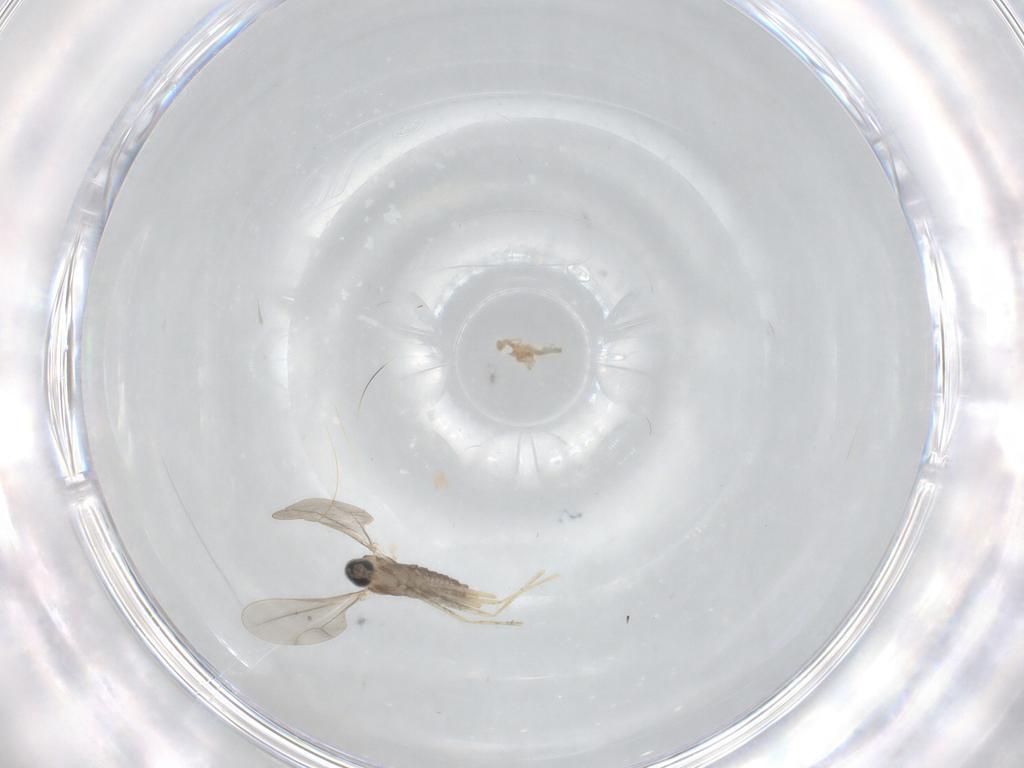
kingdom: Animalia
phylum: Arthropoda
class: Insecta
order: Diptera
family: Cecidomyiidae
